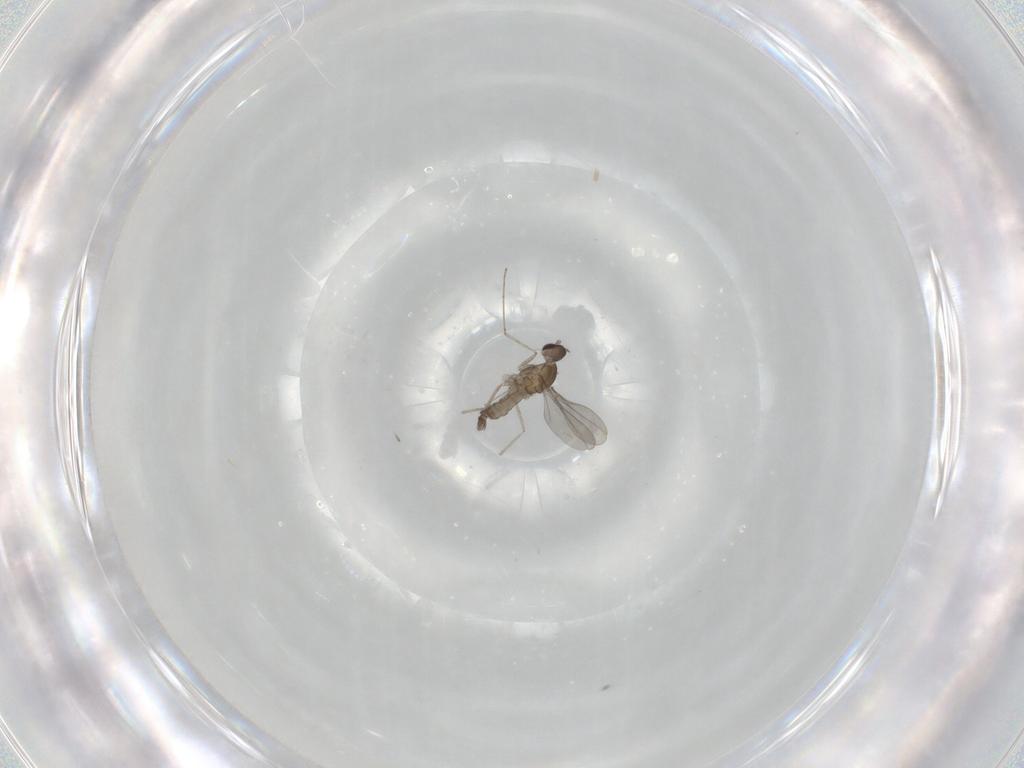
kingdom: Animalia
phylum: Arthropoda
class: Insecta
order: Diptera
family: Cecidomyiidae
